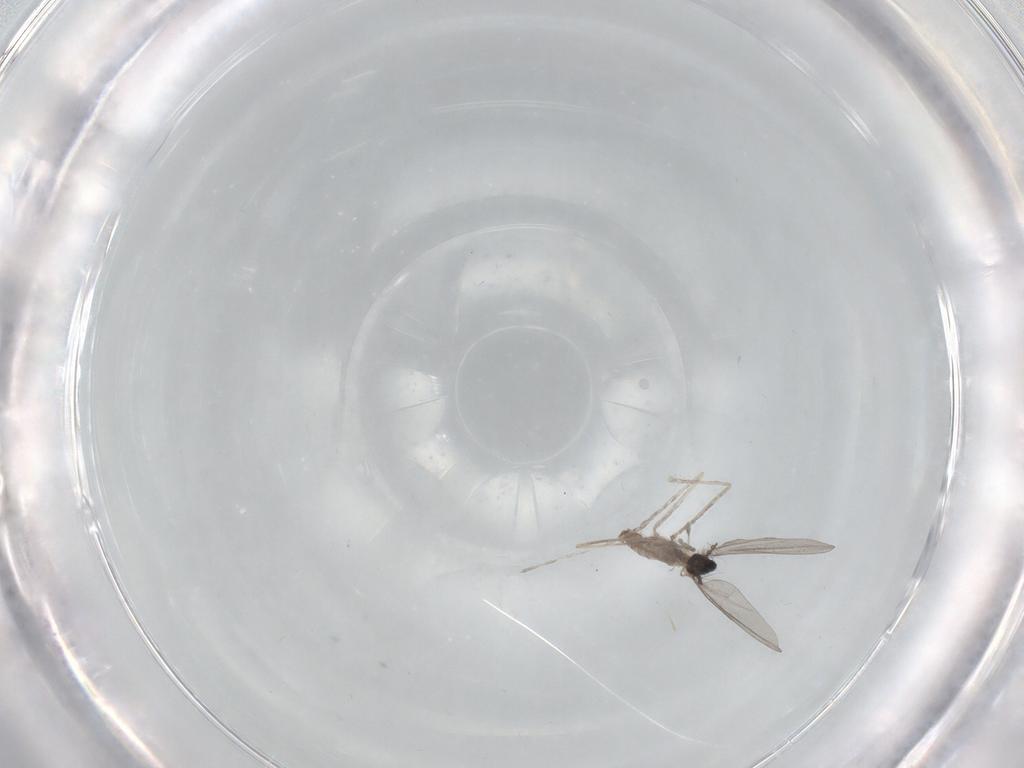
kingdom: Animalia
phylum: Arthropoda
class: Insecta
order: Diptera
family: Cecidomyiidae
